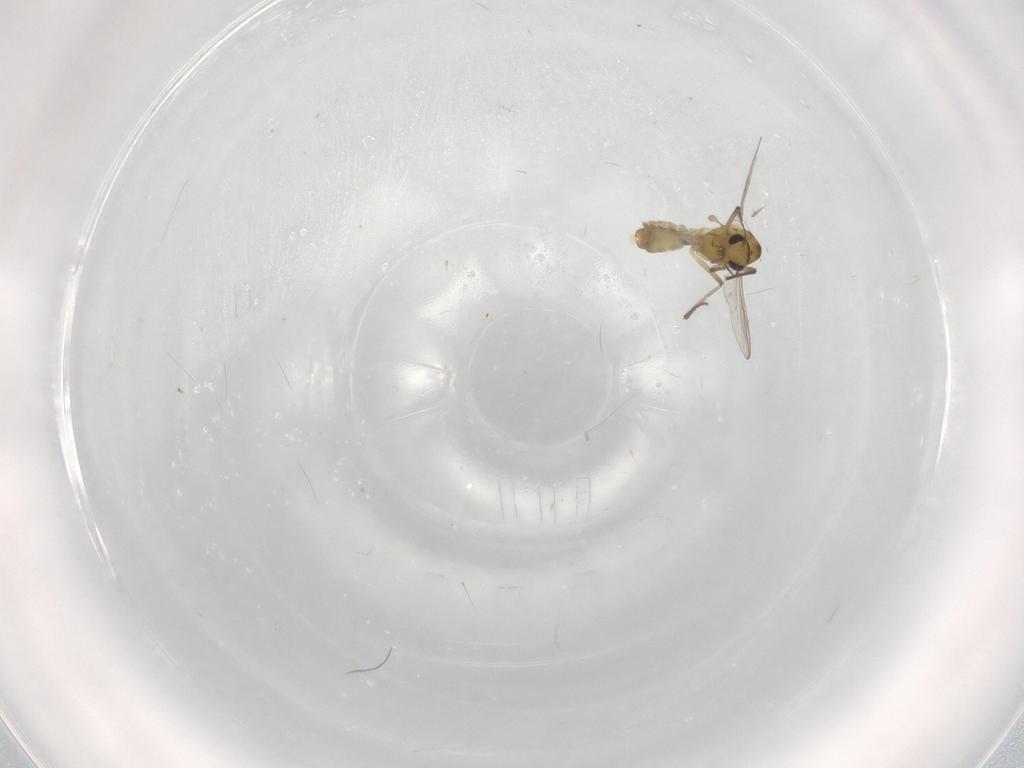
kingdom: Animalia
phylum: Arthropoda
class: Insecta
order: Diptera
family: Chironomidae
